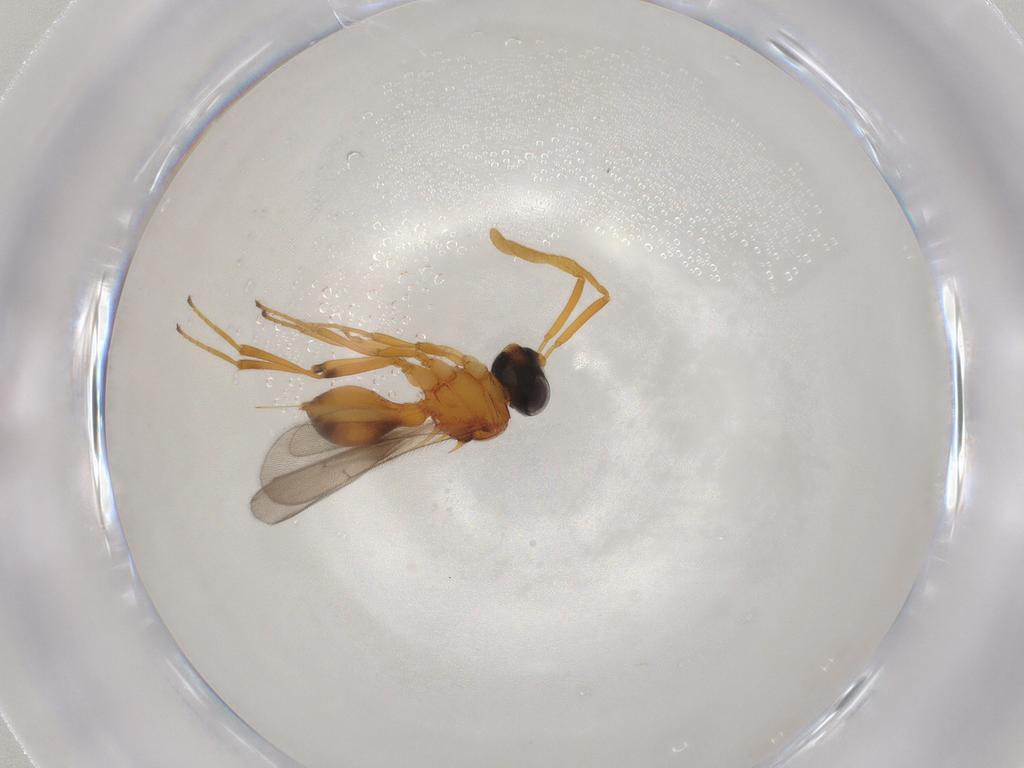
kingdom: Animalia
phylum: Arthropoda
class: Insecta
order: Hymenoptera
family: Scelionidae
